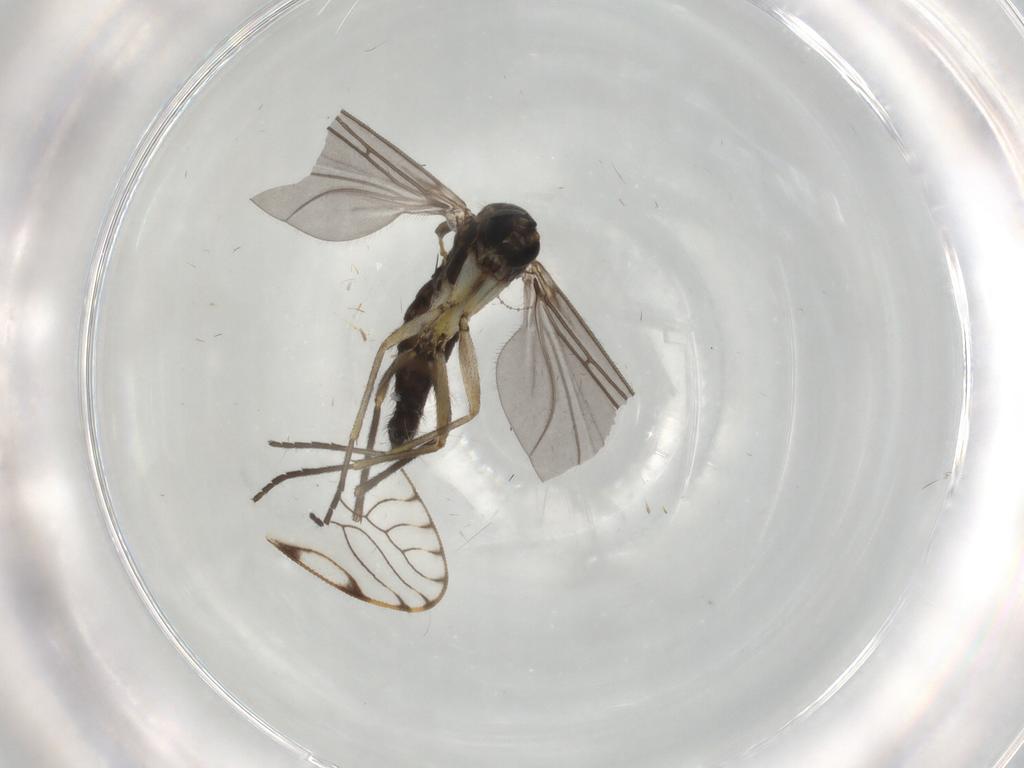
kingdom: Animalia
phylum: Arthropoda
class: Insecta
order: Diptera
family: Sciaridae
